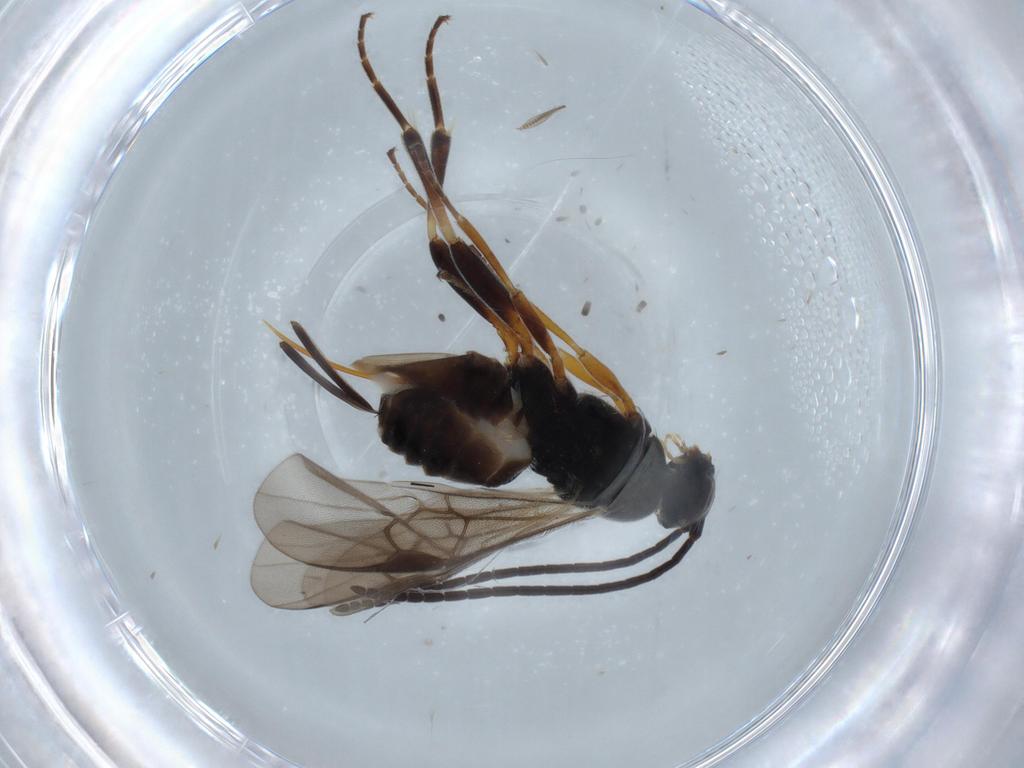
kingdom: Animalia
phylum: Arthropoda
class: Insecta
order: Hymenoptera
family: Braconidae
